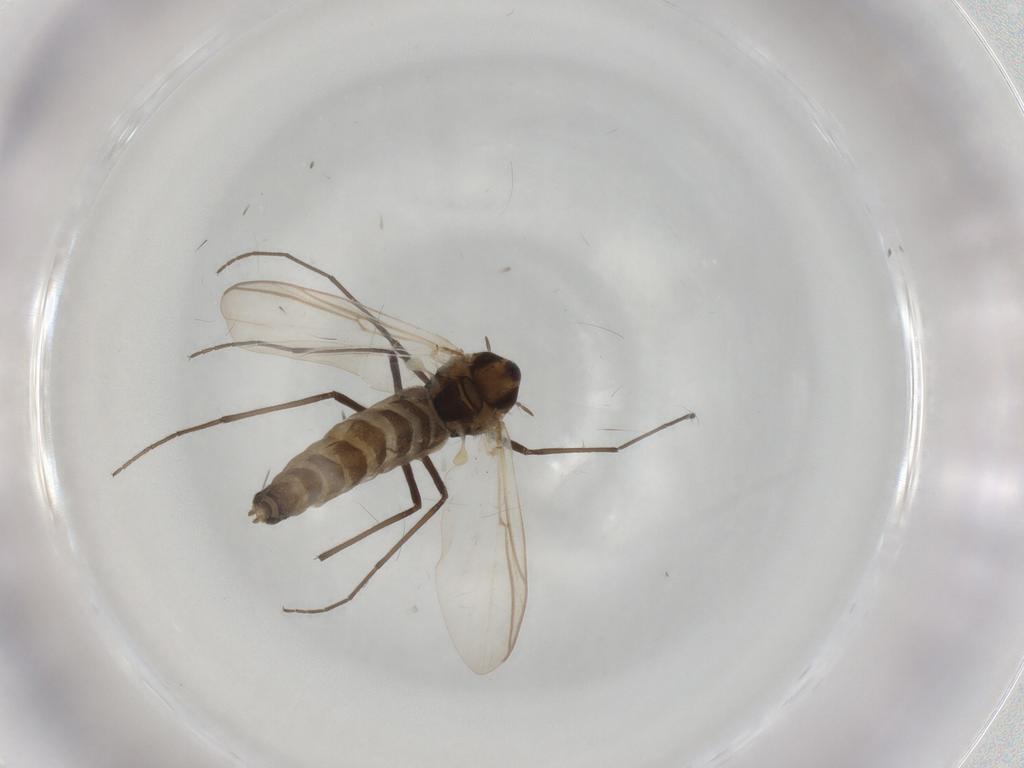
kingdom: Animalia
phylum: Arthropoda
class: Insecta
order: Diptera
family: Chironomidae
